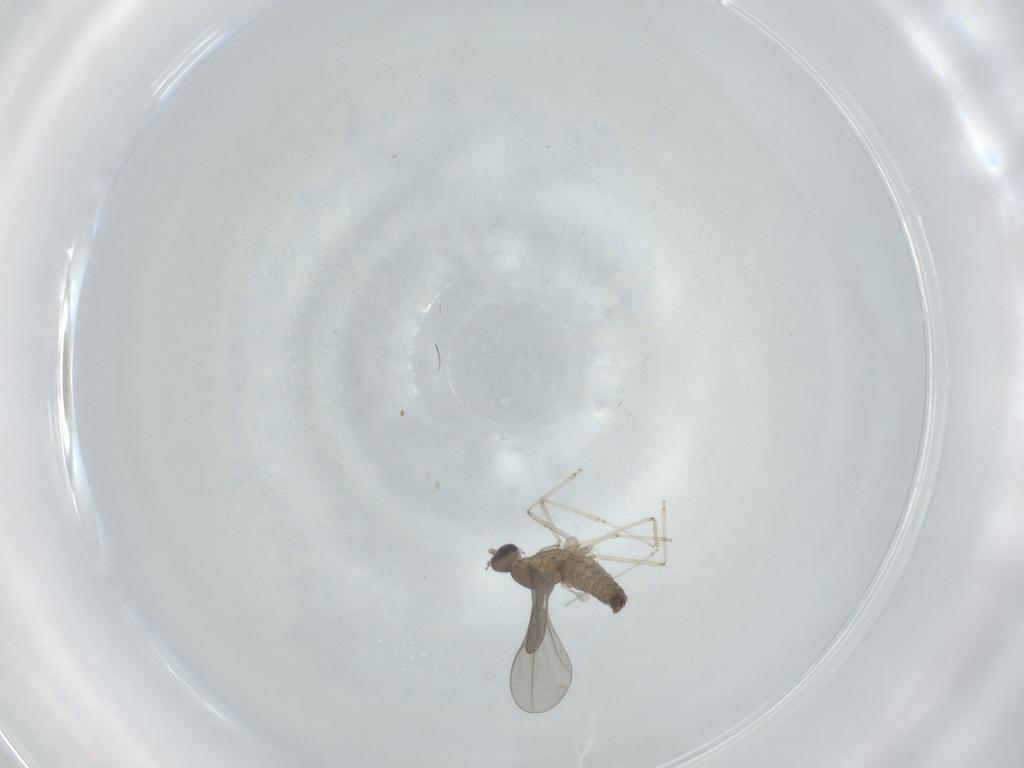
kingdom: Animalia
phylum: Arthropoda
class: Insecta
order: Diptera
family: Cecidomyiidae
